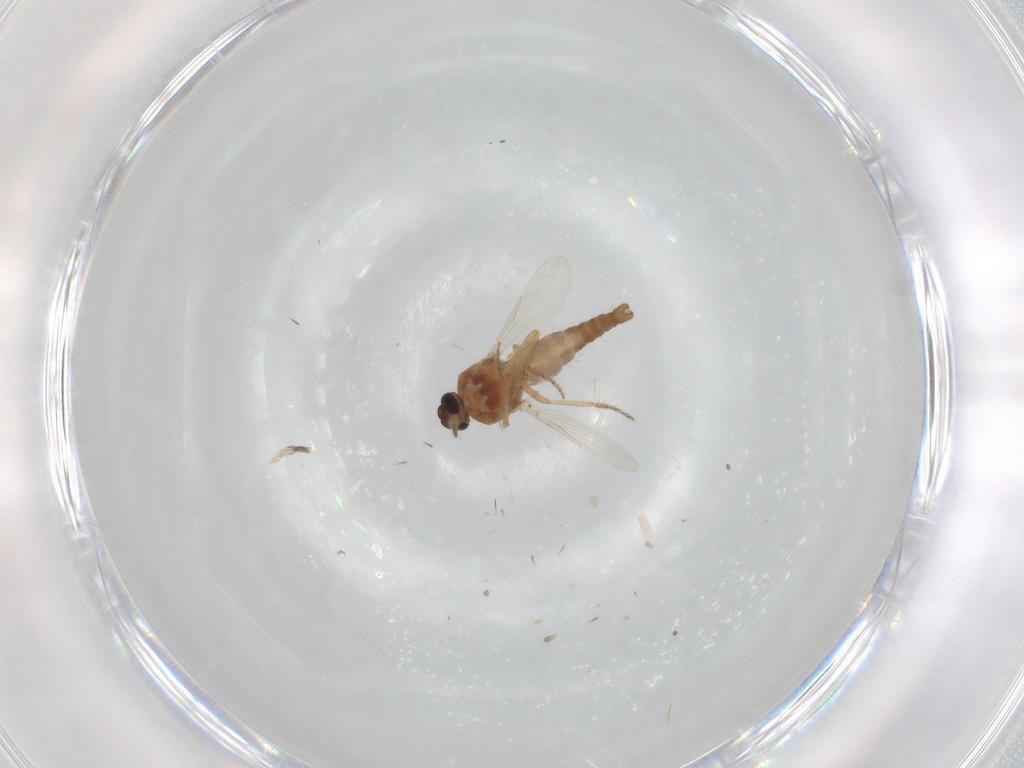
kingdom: Animalia
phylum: Arthropoda
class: Insecta
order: Diptera
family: Ceratopogonidae
